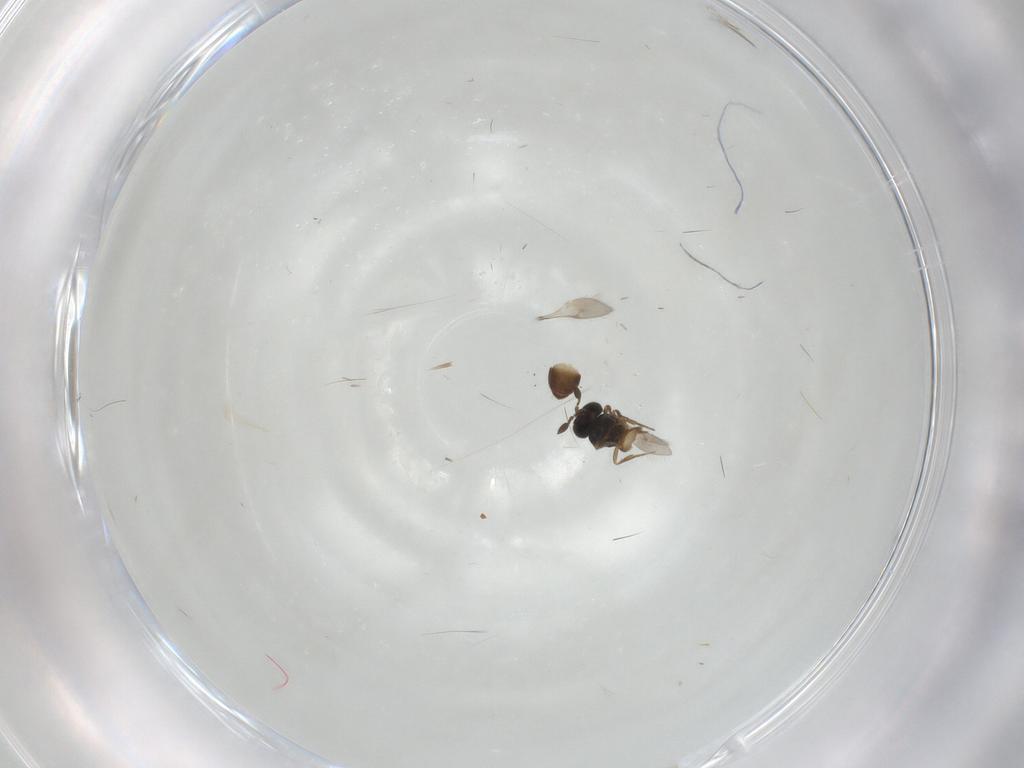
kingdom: Animalia
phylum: Arthropoda
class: Insecta
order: Hymenoptera
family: Scelionidae
